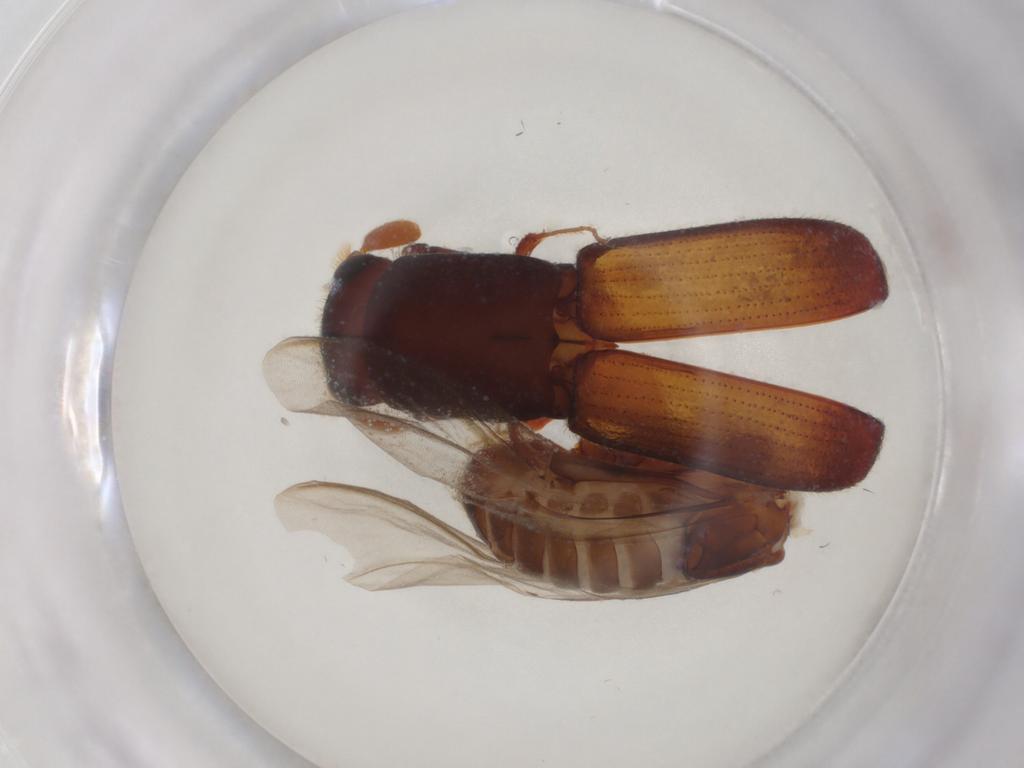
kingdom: Animalia
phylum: Arthropoda
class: Insecta
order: Coleoptera
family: Curculionidae
